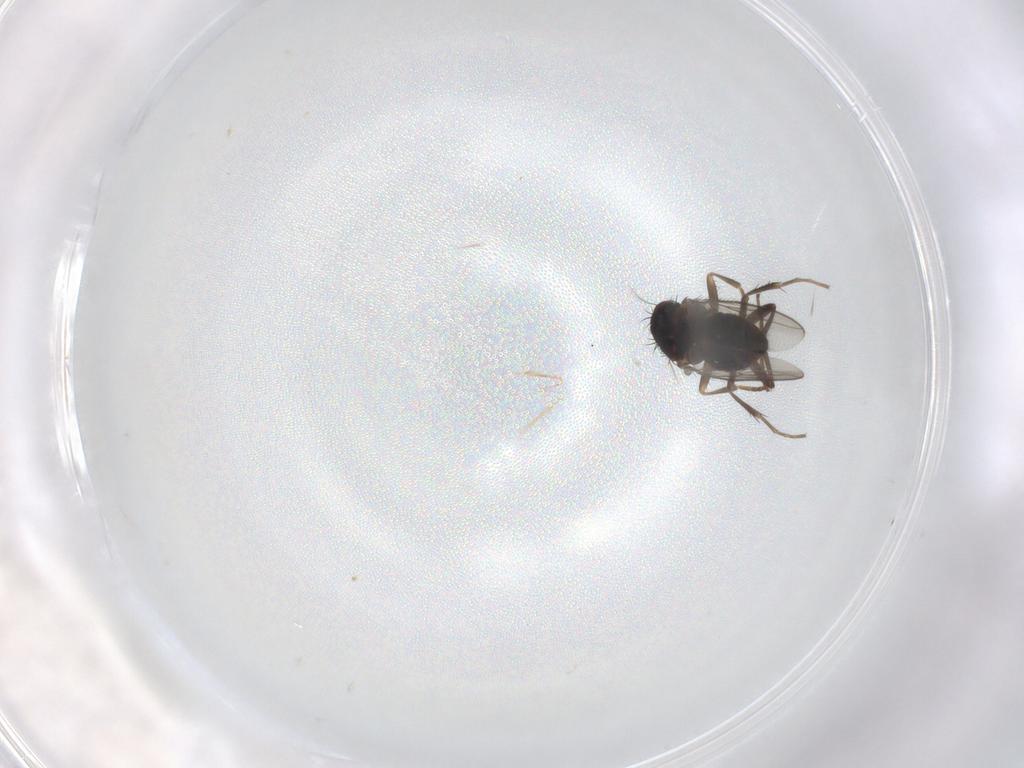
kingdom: Animalia
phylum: Arthropoda
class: Insecta
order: Diptera
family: Sphaeroceridae
